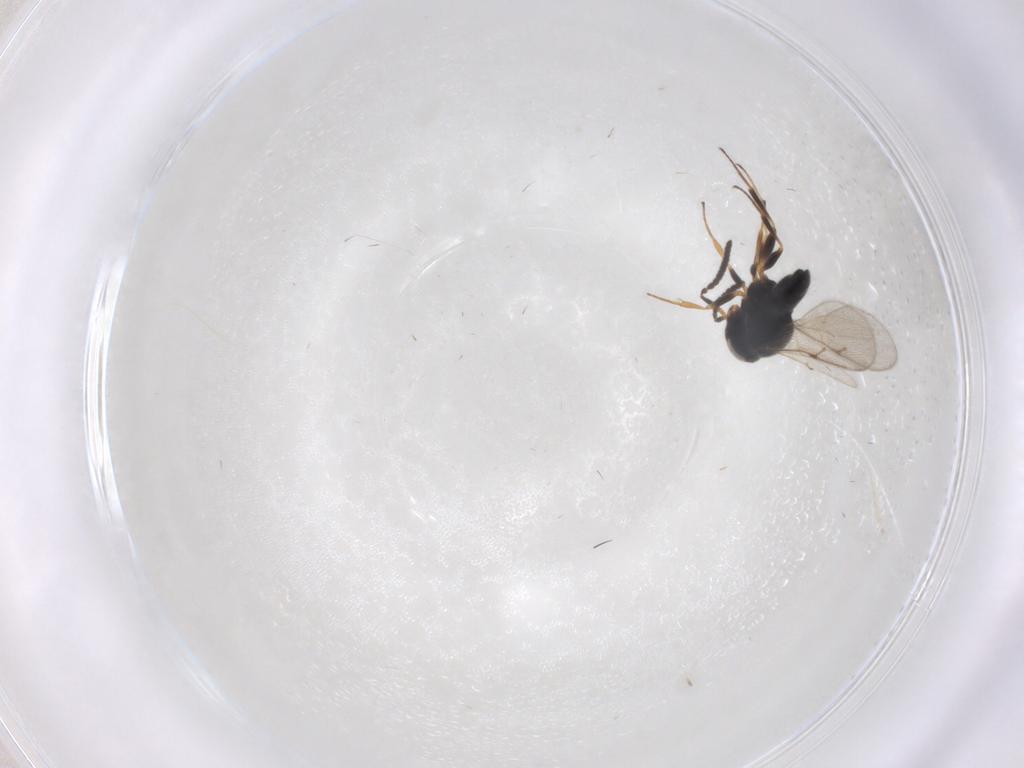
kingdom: Animalia
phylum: Arthropoda
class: Insecta
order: Hymenoptera
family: Scelionidae
